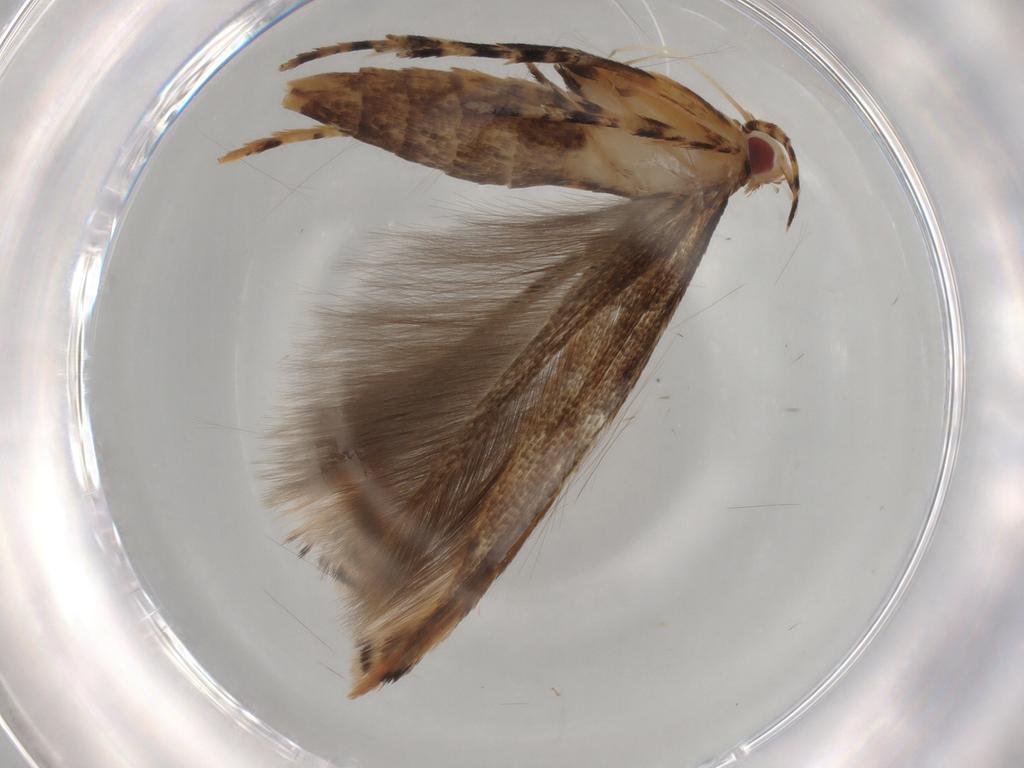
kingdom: Animalia
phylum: Arthropoda
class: Insecta
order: Lepidoptera
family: Cosmopterigidae
